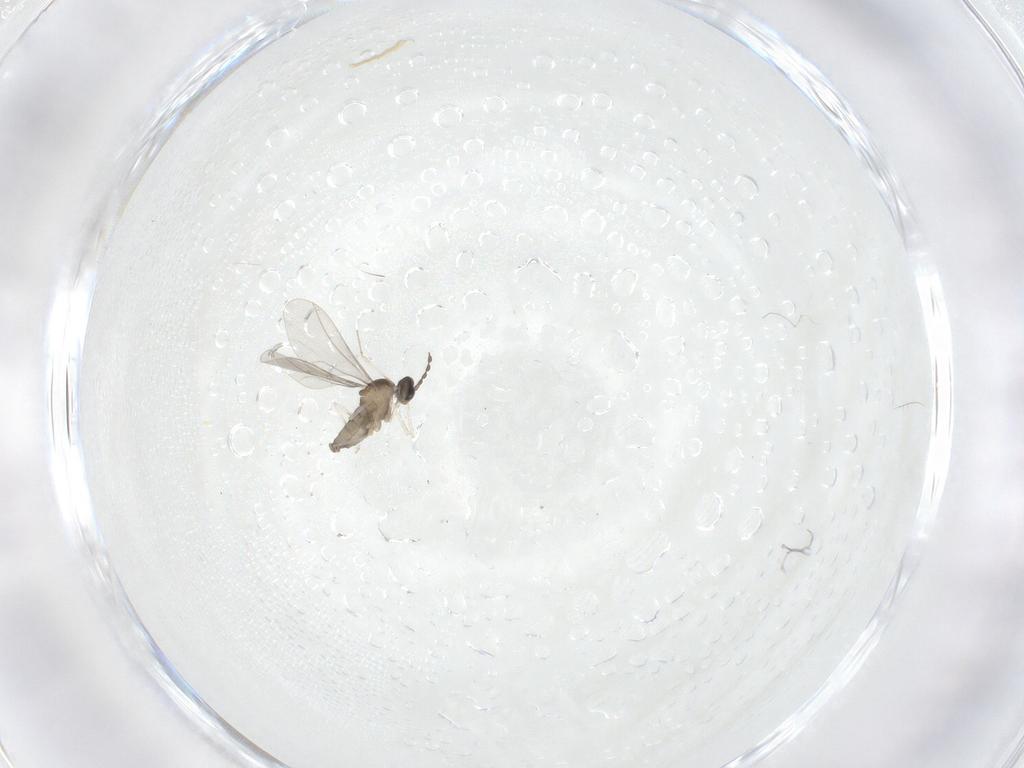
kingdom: Animalia
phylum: Arthropoda
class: Insecta
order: Diptera
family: Cecidomyiidae
